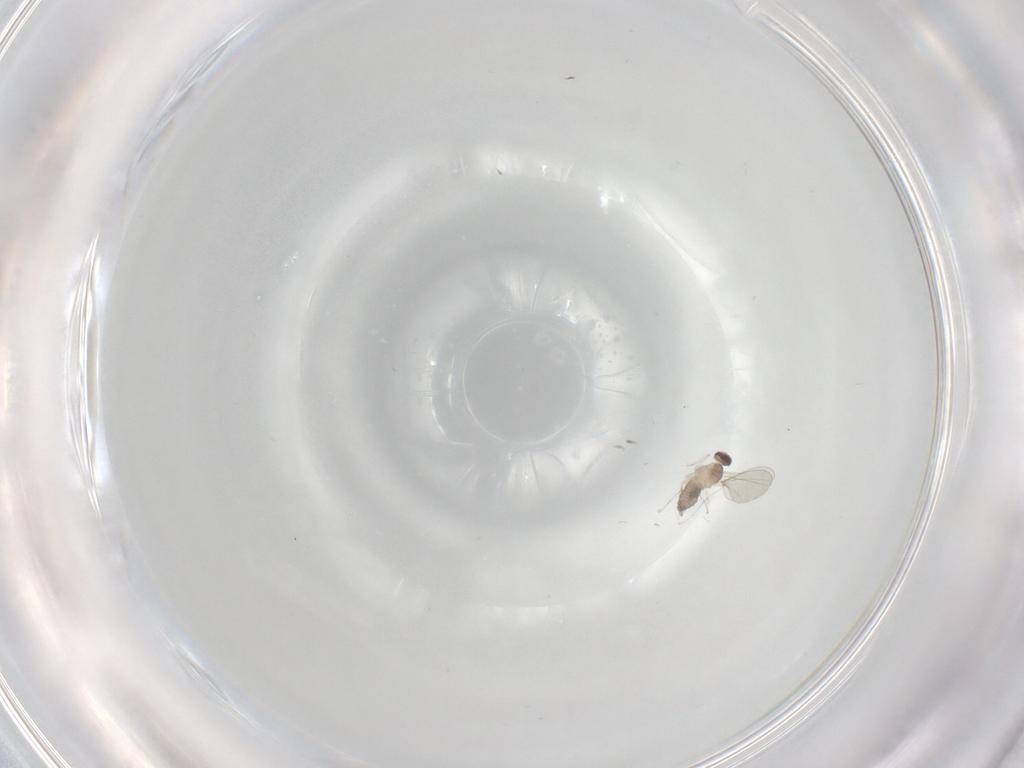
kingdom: Animalia
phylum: Arthropoda
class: Insecta
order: Diptera
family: Cecidomyiidae
